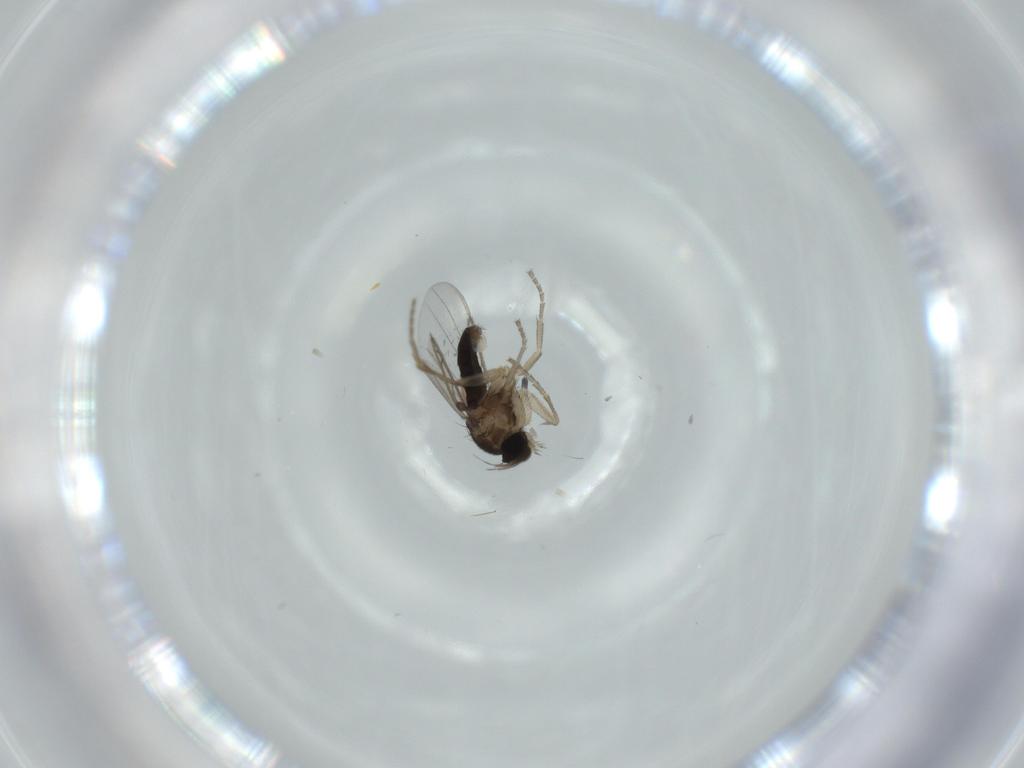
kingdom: Animalia
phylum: Arthropoda
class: Insecta
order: Diptera
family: Phoridae
